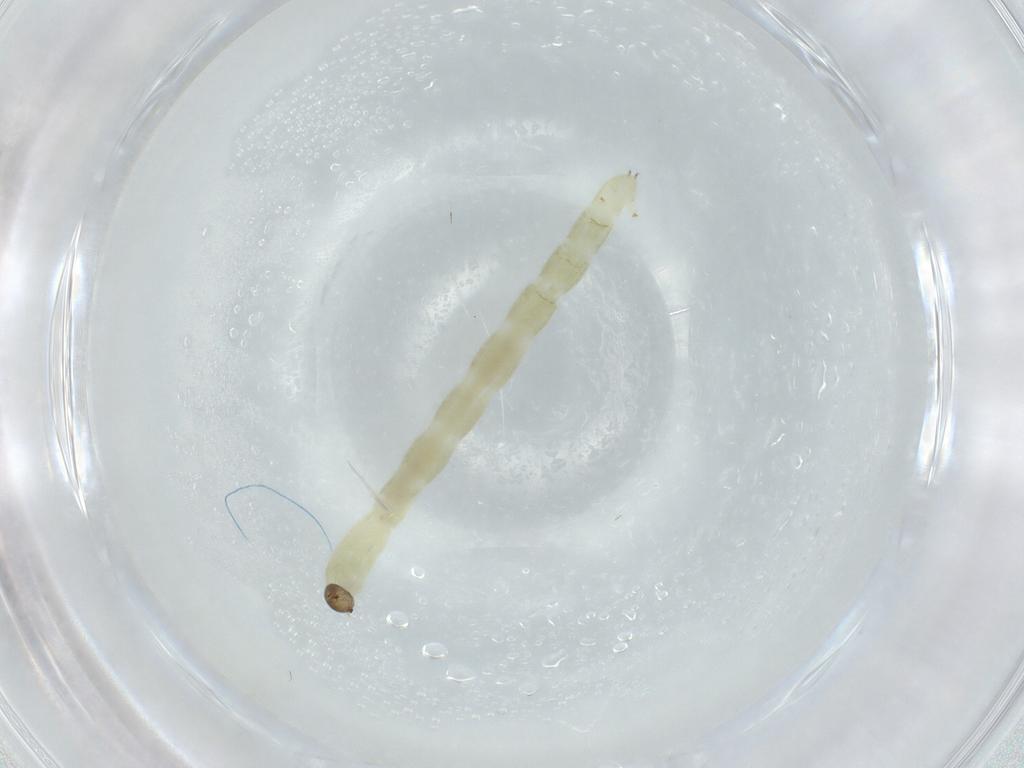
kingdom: Animalia
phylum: Arthropoda
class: Insecta
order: Diptera
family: Chironomidae
